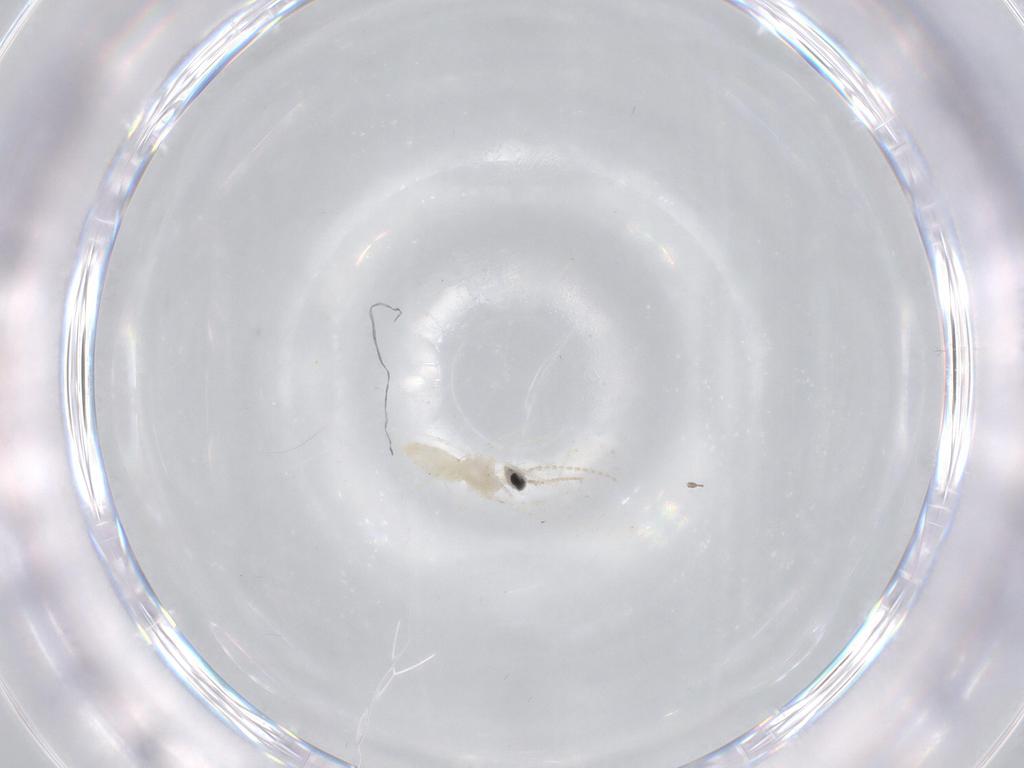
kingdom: Animalia
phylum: Arthropoda
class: Insecta
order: Diptera
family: Cecidomyiidae
